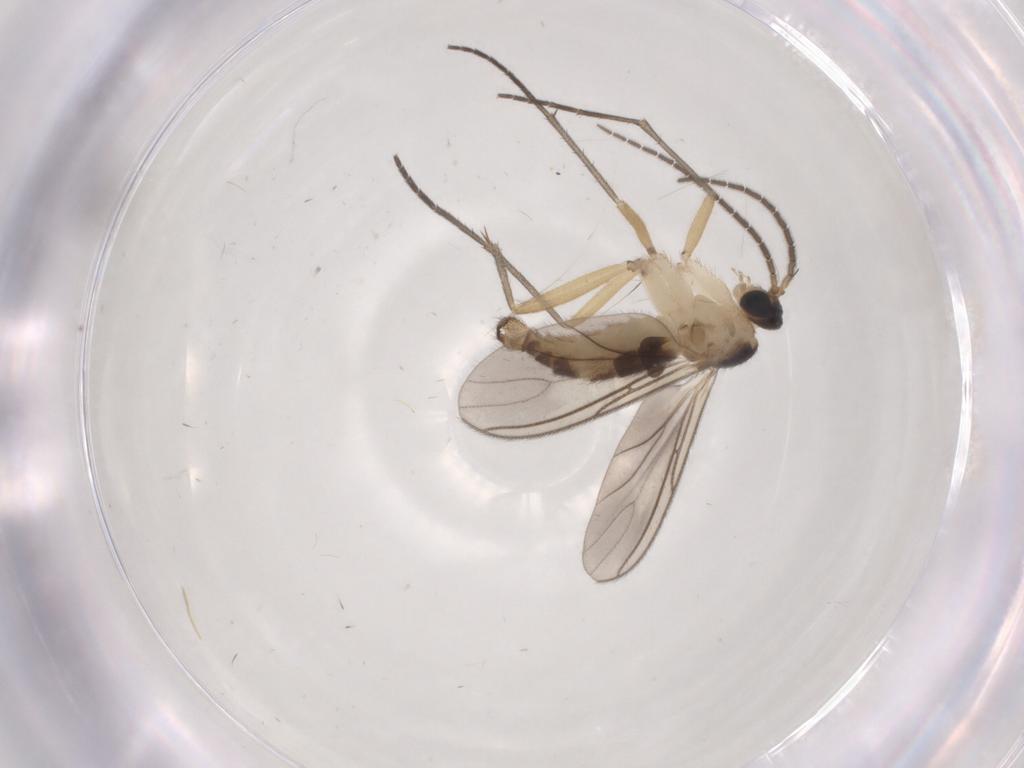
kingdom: Animalia
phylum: Arthropoda
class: Insecta
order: Diptera
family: Sciaridae
